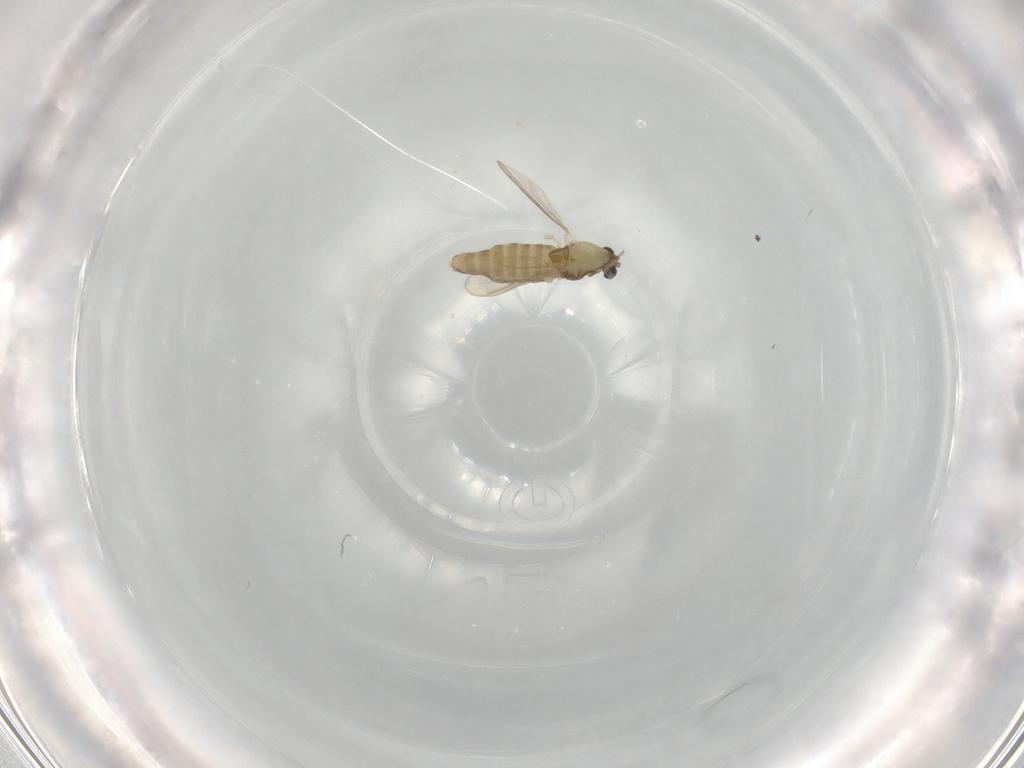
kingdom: Animalia
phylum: Arthropoda
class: Insecta
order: Diptera
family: Chironomidae
